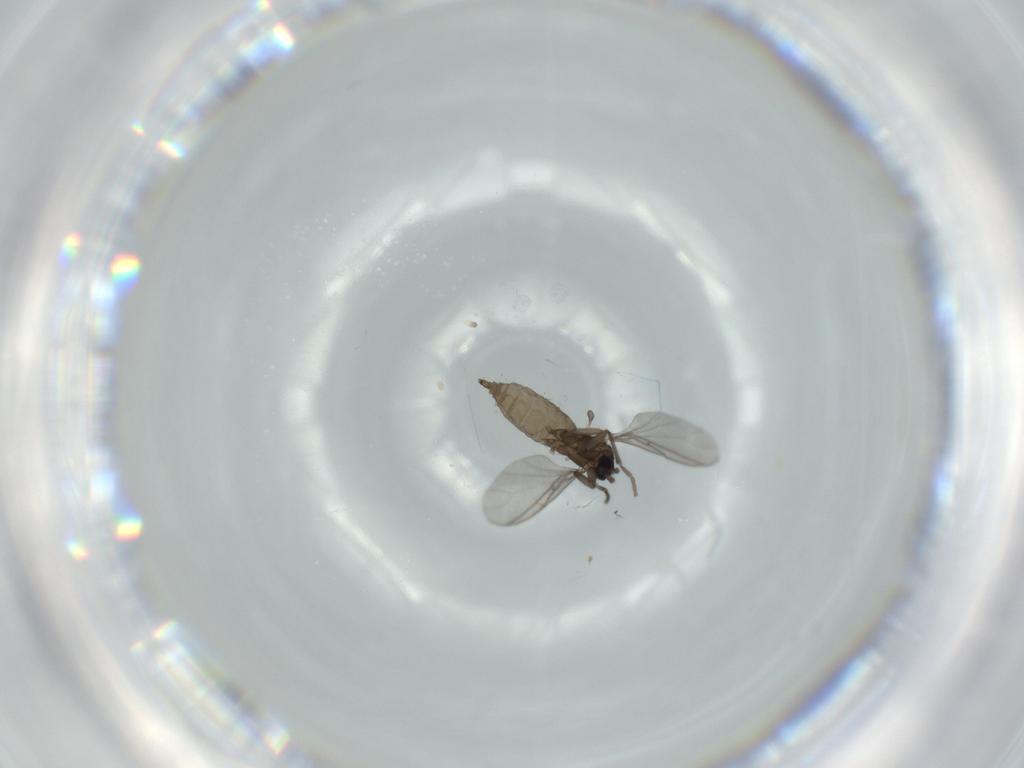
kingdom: Animalia
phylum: Arthropoda
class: Insecta
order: Diptera
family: Sciaridae
